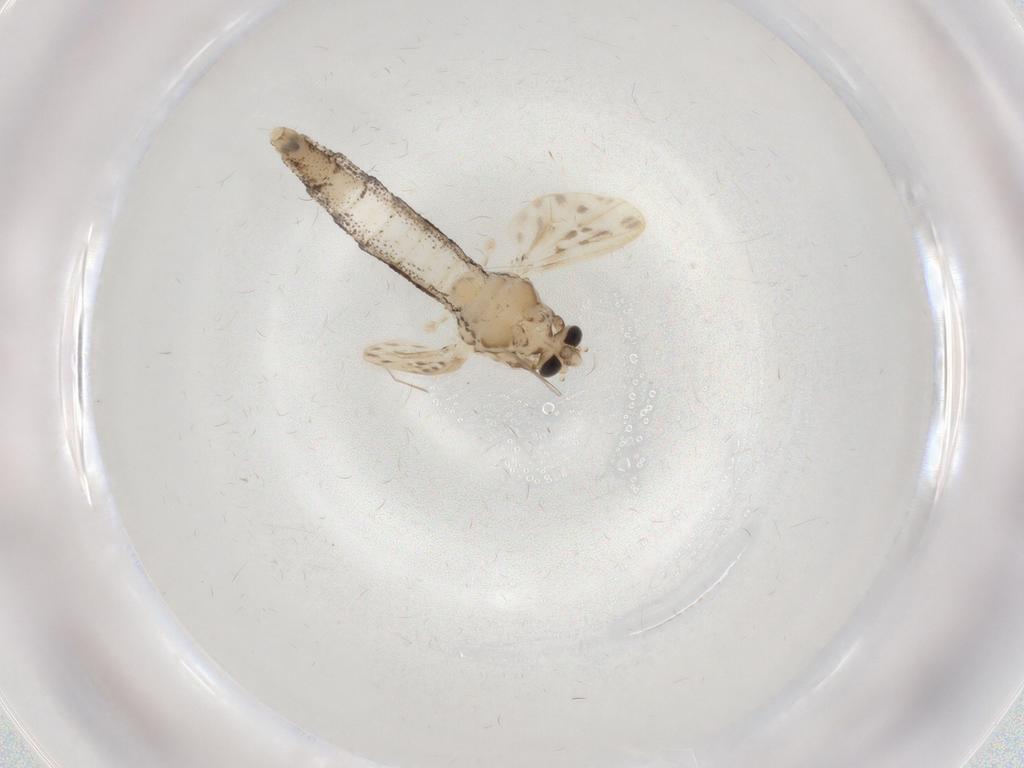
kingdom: Animalia
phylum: Arthropoda
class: Insecta
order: Diptera
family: Chaoboridae
